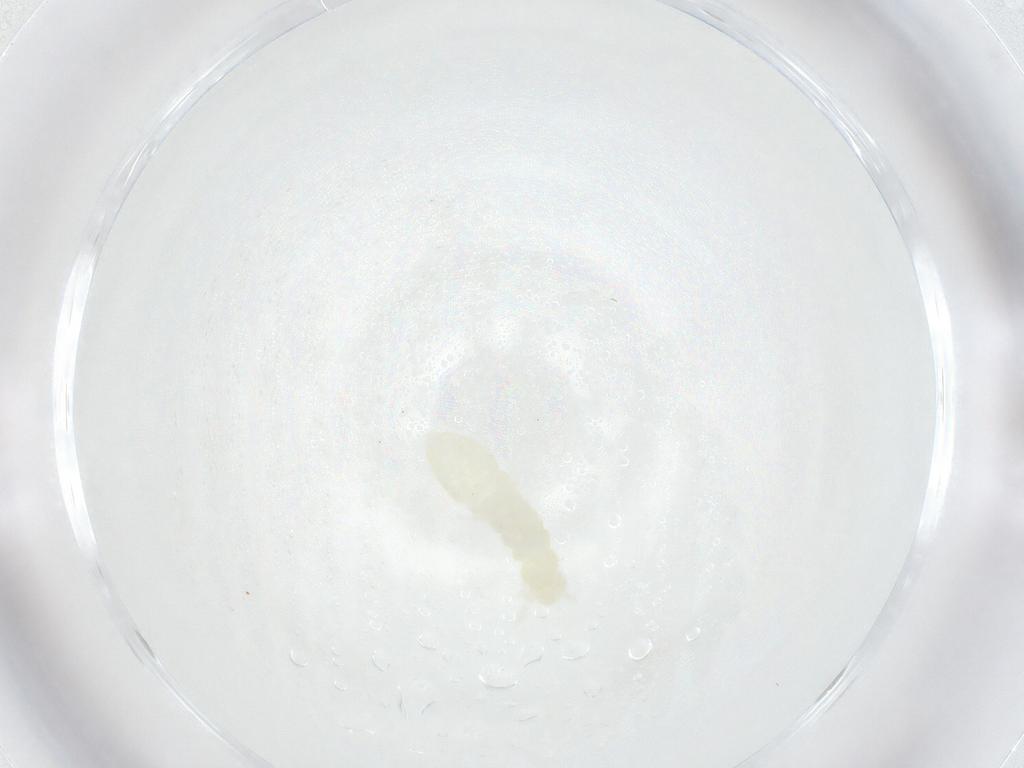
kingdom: Animalia
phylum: Arthropoda
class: Collembola
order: Poduromorpha
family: Onychiuridae
